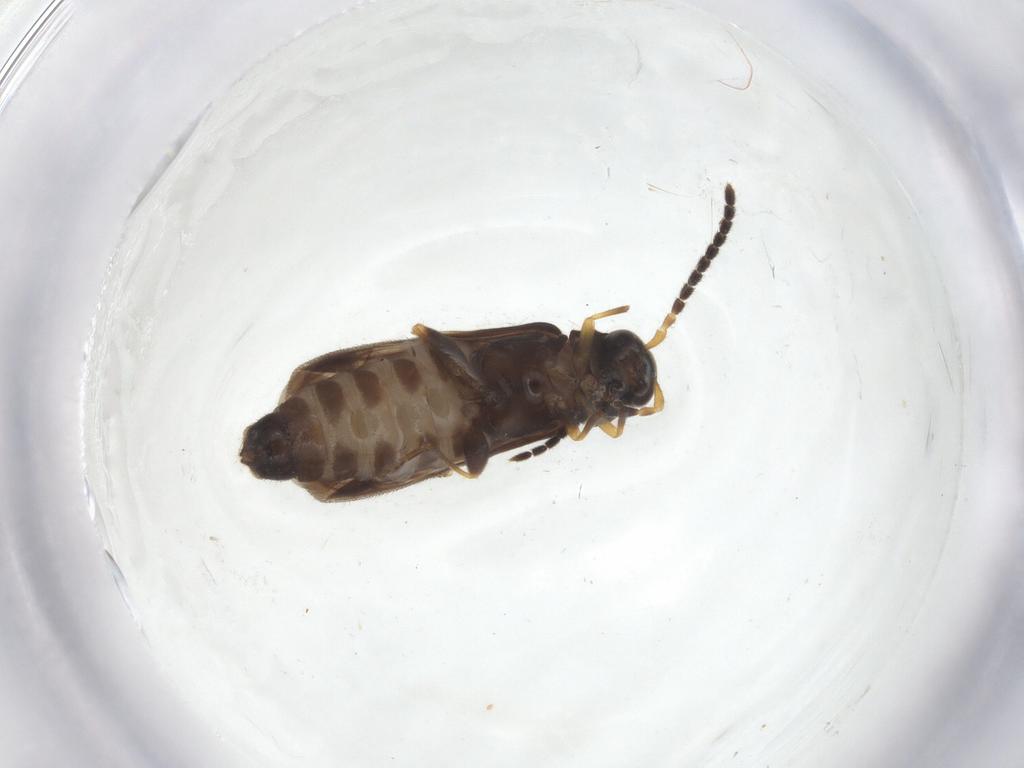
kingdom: Animalia
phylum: Arthropoda
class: Insecta
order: Coleoptera
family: Cantharidae
